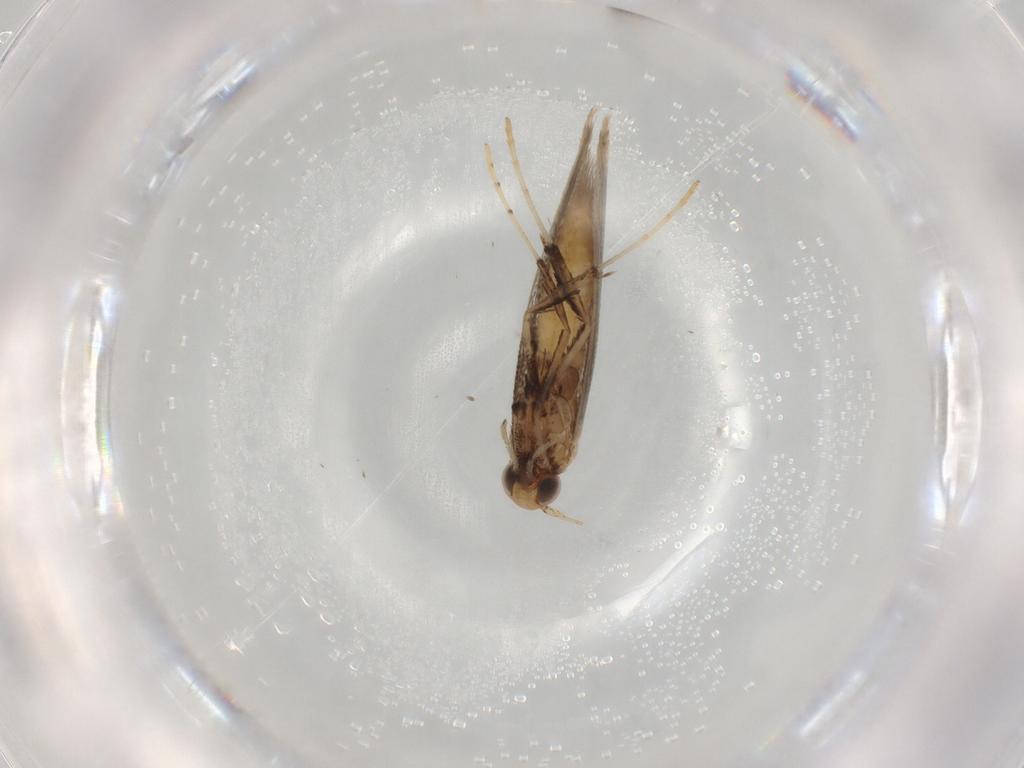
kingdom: Animalia
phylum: Arthropoda
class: Insecta
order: Lepidoptera
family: Gracillariidae
